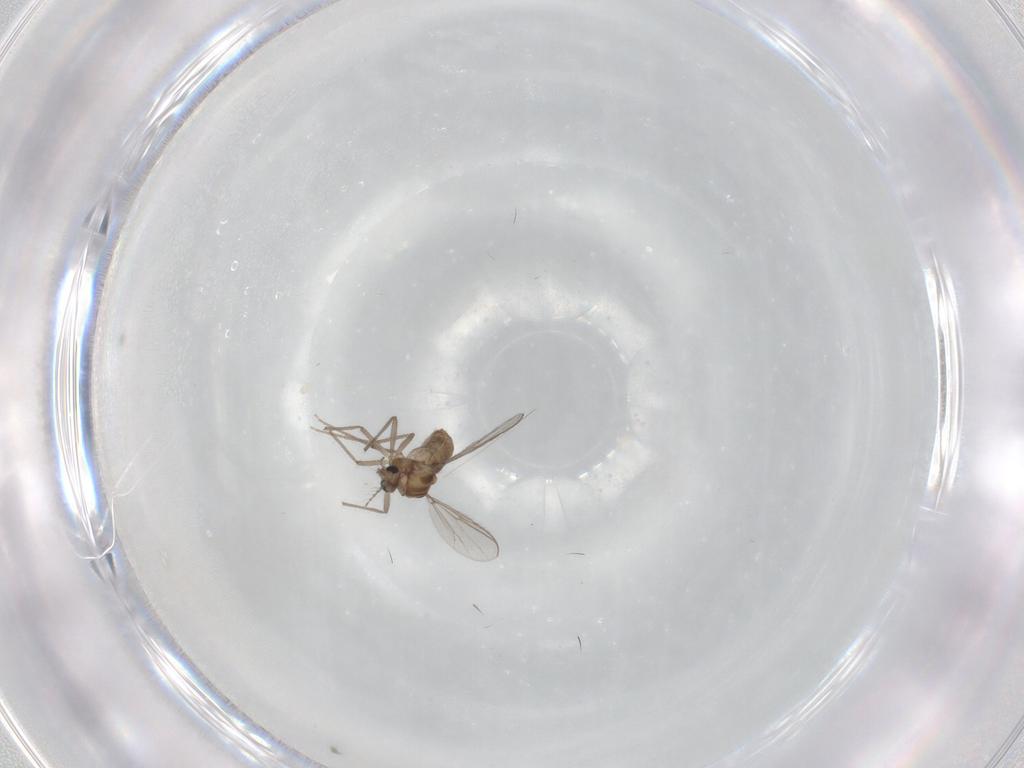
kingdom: Animalia
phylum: Arthropoda
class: Insecta
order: Diptera
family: Chironomidae
